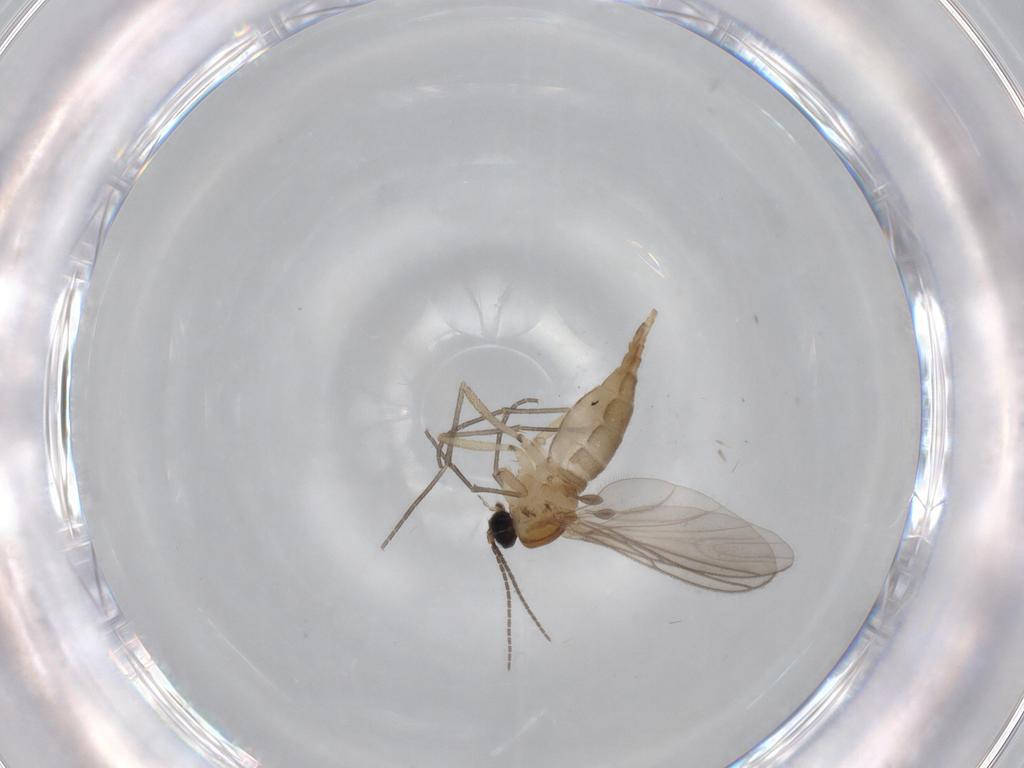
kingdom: Animalia
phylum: Arthropoda
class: Insecta
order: Diptera
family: Sciaridae
